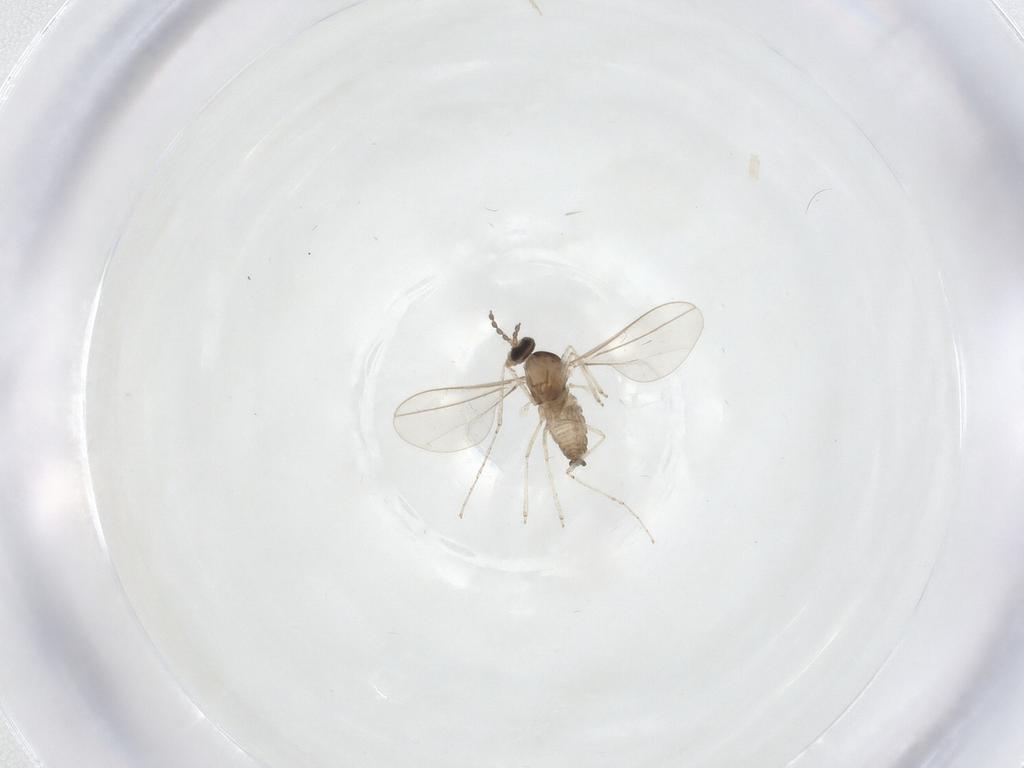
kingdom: Animalia
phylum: Arthropoda
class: Insecta
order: Diptera
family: Cecidomyiidae
